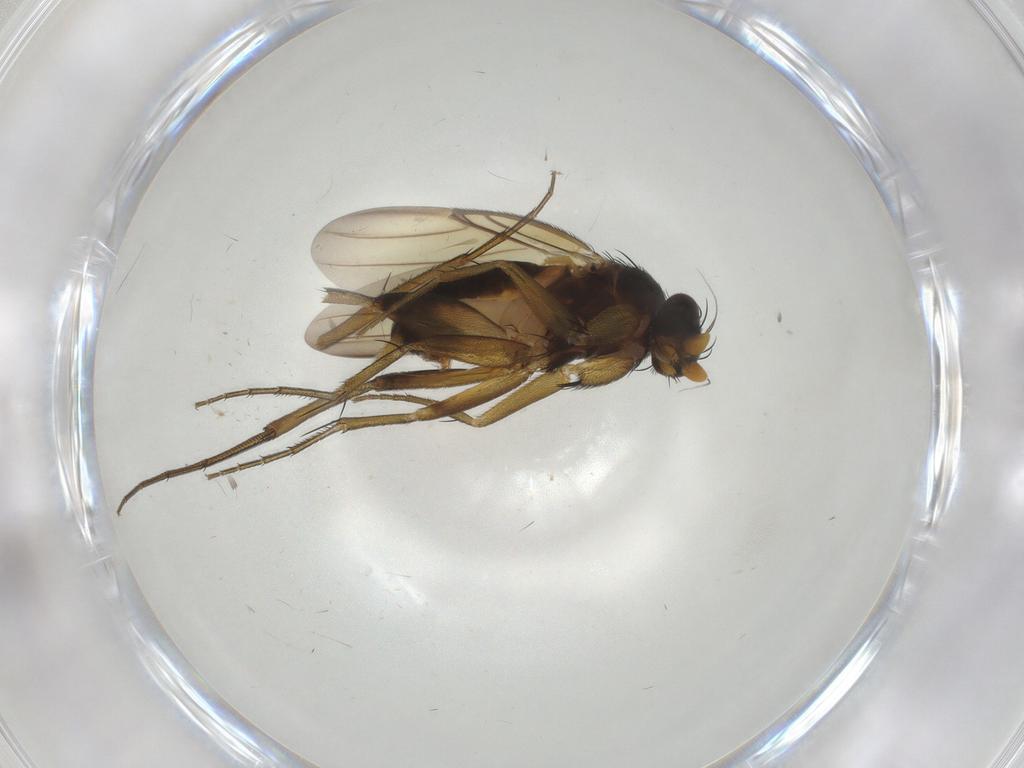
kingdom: Animalia
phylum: Arthropoda
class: Insecta
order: Diptera
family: Phoridae
